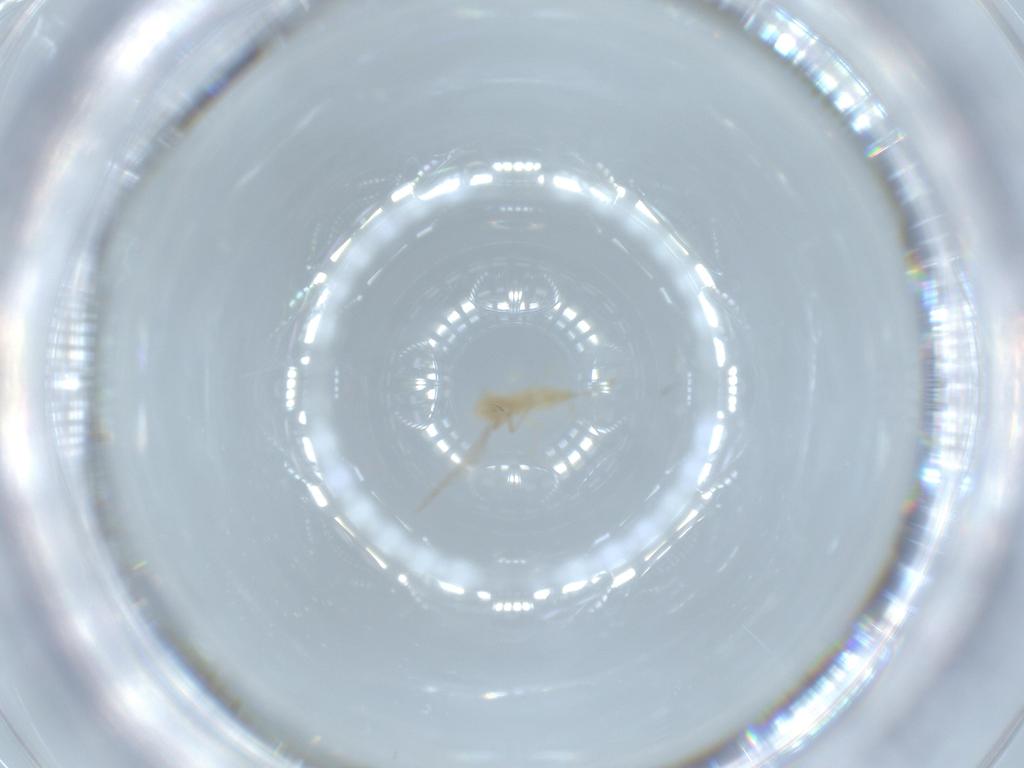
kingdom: Animalia
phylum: Arthropoda
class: Insecta
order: Diptera
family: Cecidomyiidae
